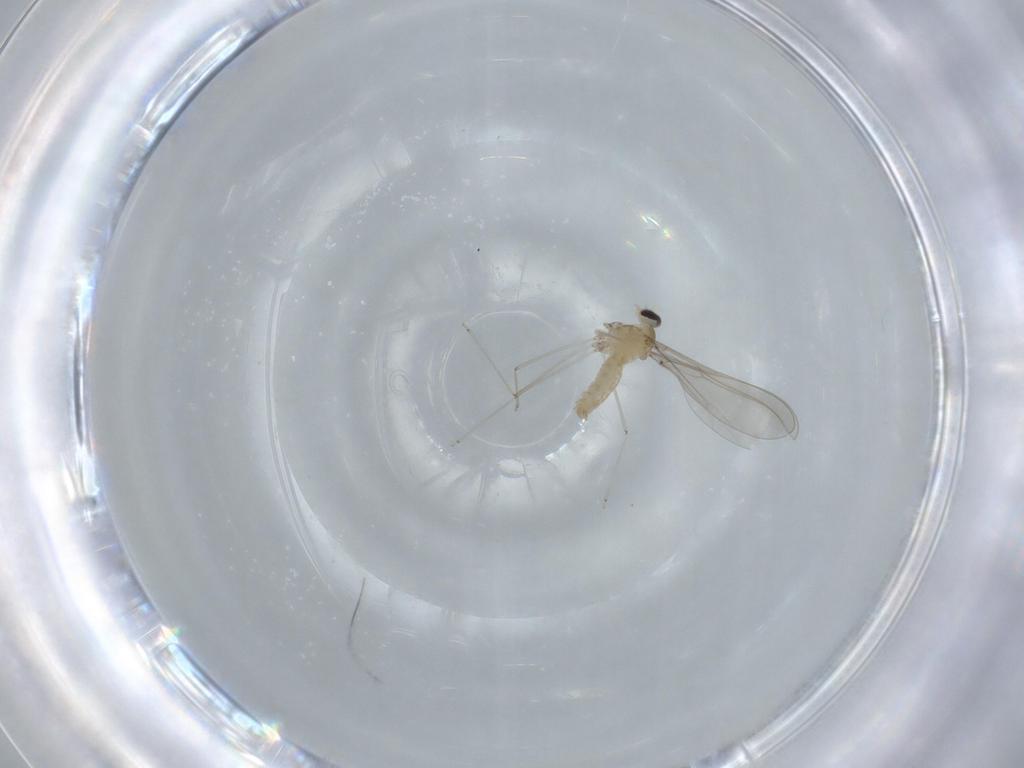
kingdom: Animalia
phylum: Arthropoda
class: Insecta
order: Diptera
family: Cecidomyiidae
